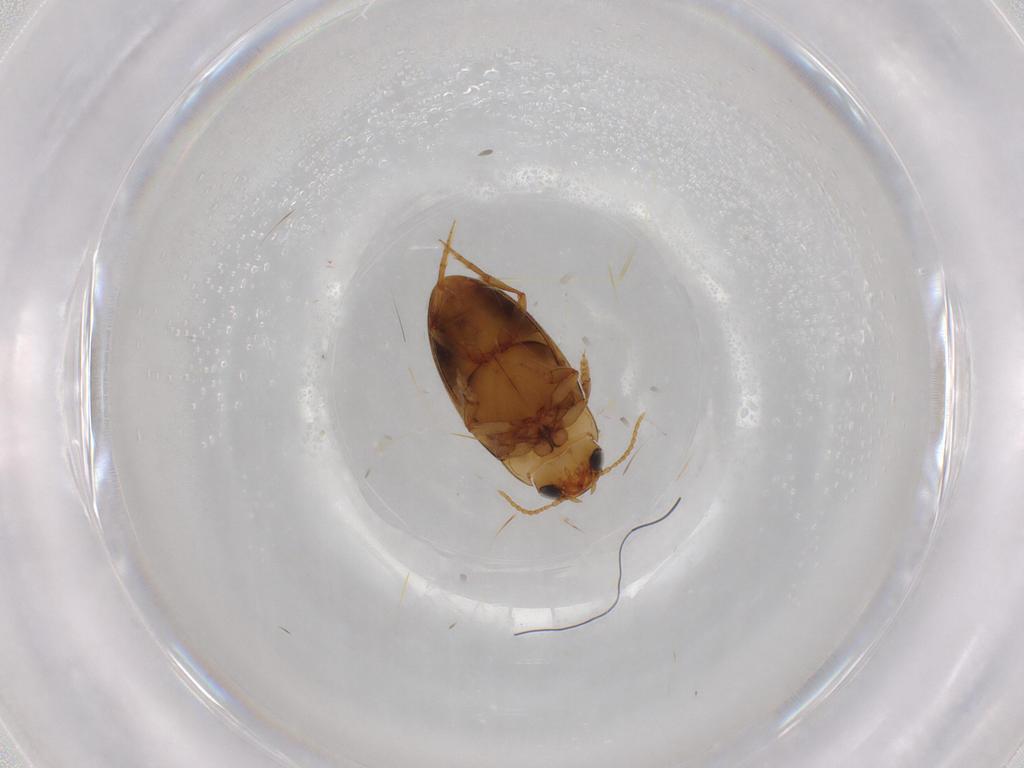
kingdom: Animalia
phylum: Arthropoda
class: Insecta
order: Coleoptera
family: Dytiscidae
